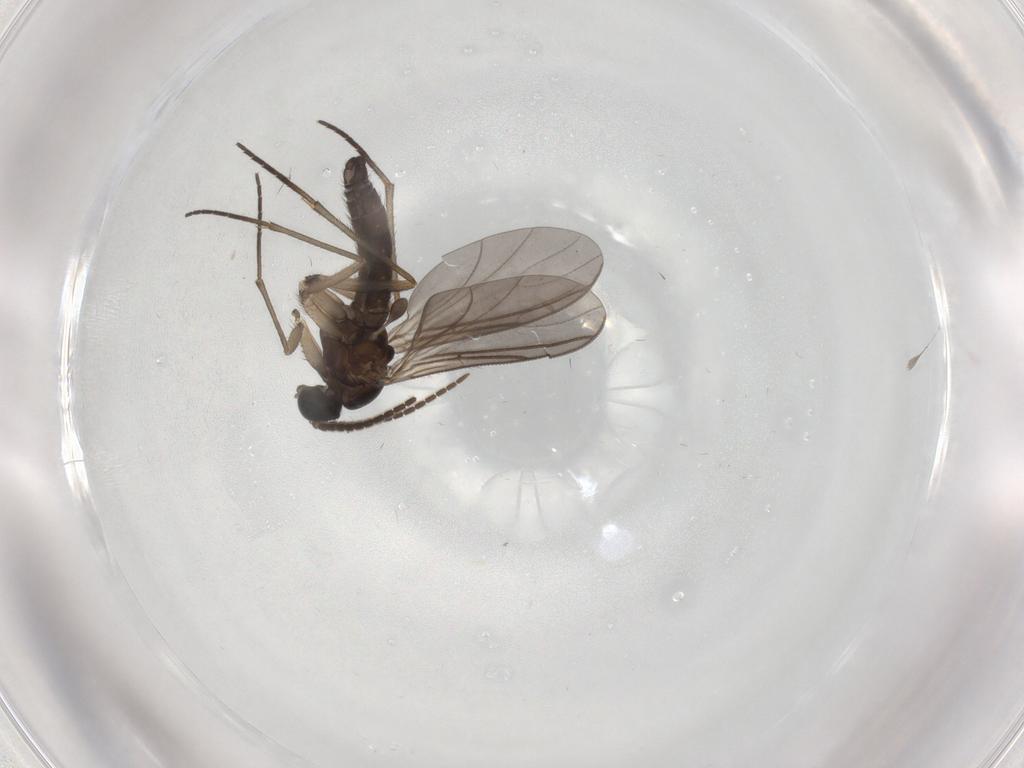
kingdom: Animalia
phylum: Arthropoda
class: Insecta
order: Diptera
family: Sciaridae
